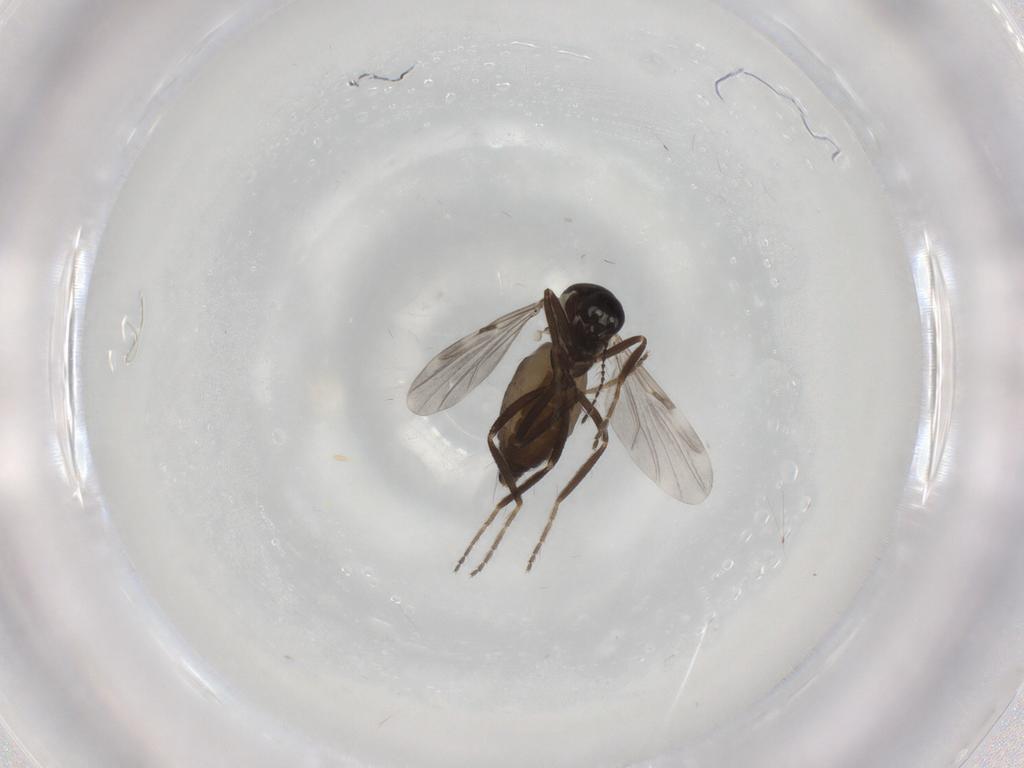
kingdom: Animalia
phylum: Arthropoda
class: Insecta
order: Diptera
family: Ceratopogonidae
